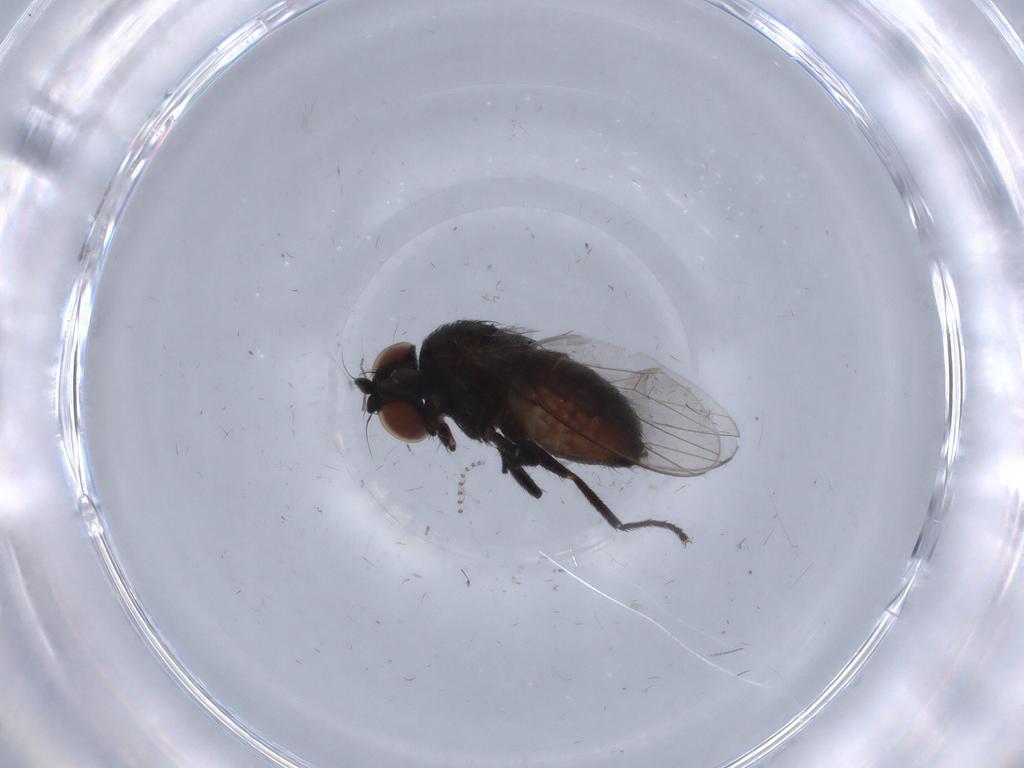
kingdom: Animalia
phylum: Arthropoda
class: Insecta
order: Diptera
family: Milichiidae
